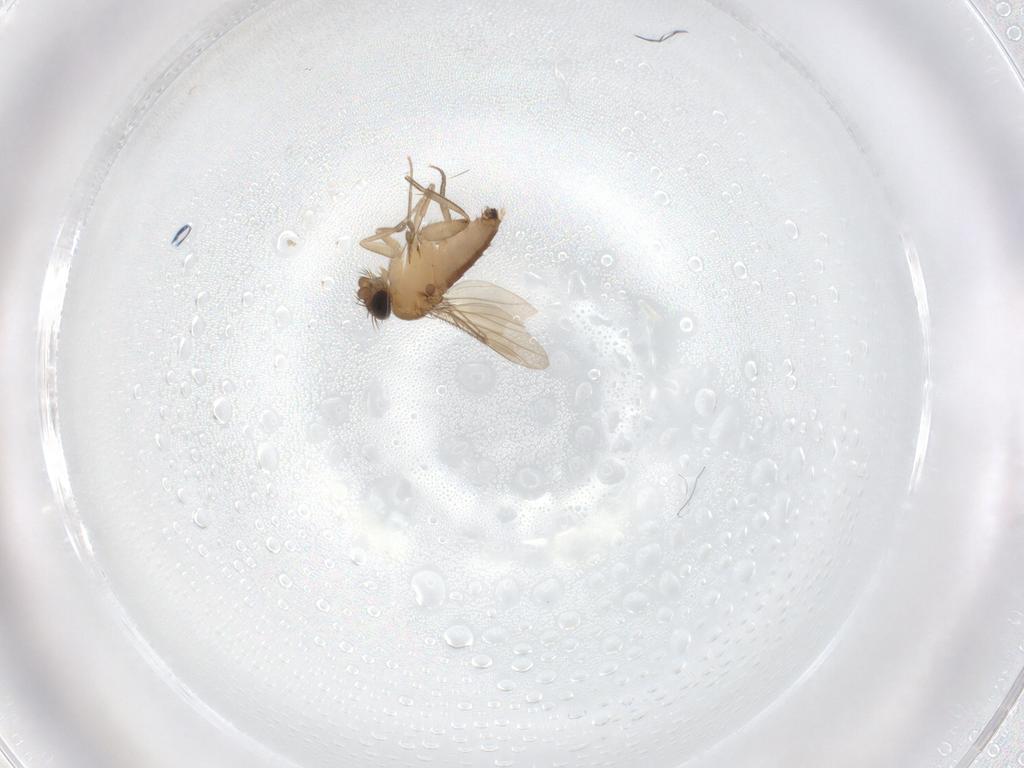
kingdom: Animalia
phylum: Arthropoda
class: Insecta
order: Diptera
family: Phoridae
